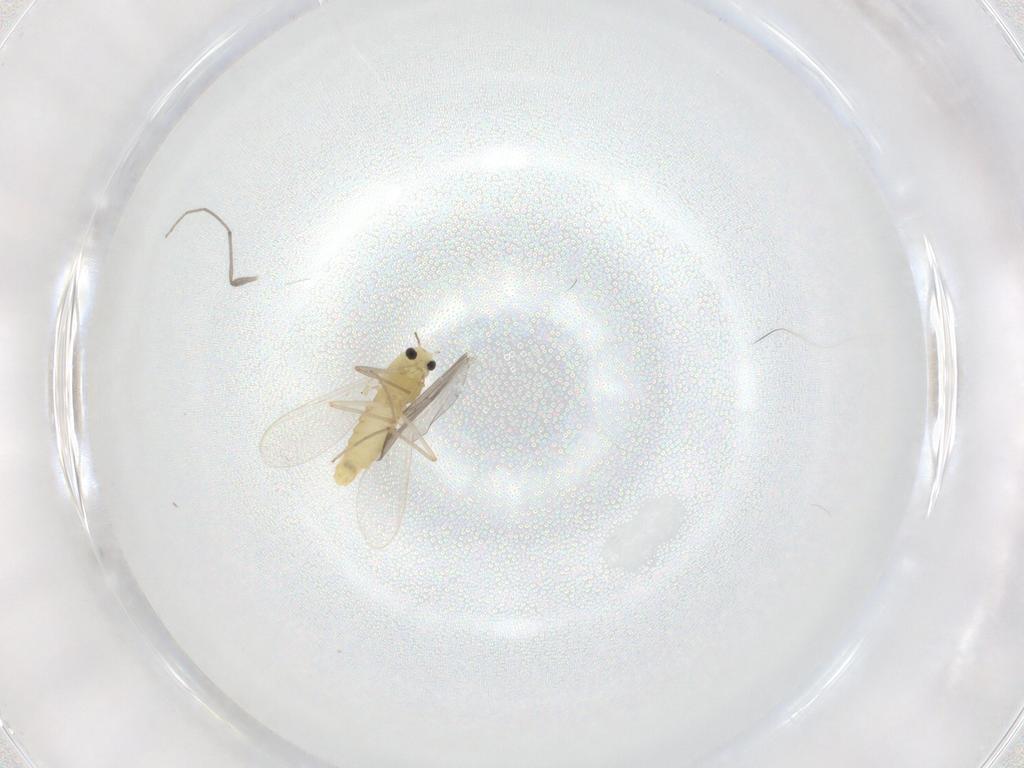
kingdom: Animalia
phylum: Arthropoda
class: Insecta
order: Diptera
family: Chironomidae
